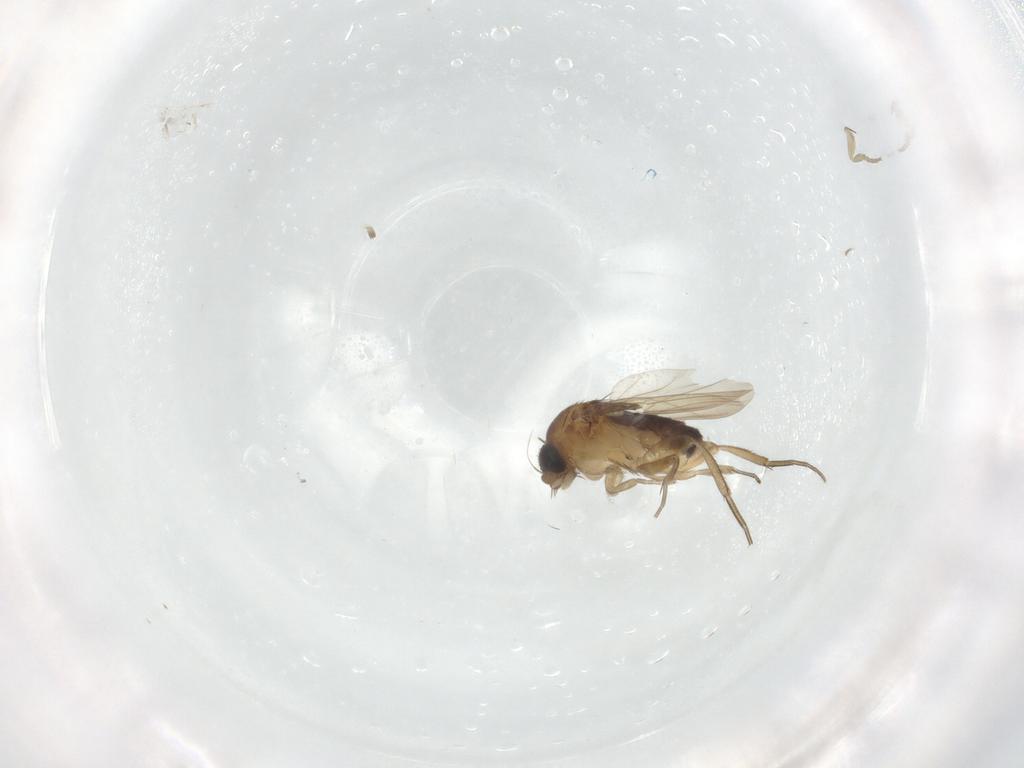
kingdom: Animalia
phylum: Arthropoda
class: Insecta
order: Diptera
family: Phoridae
